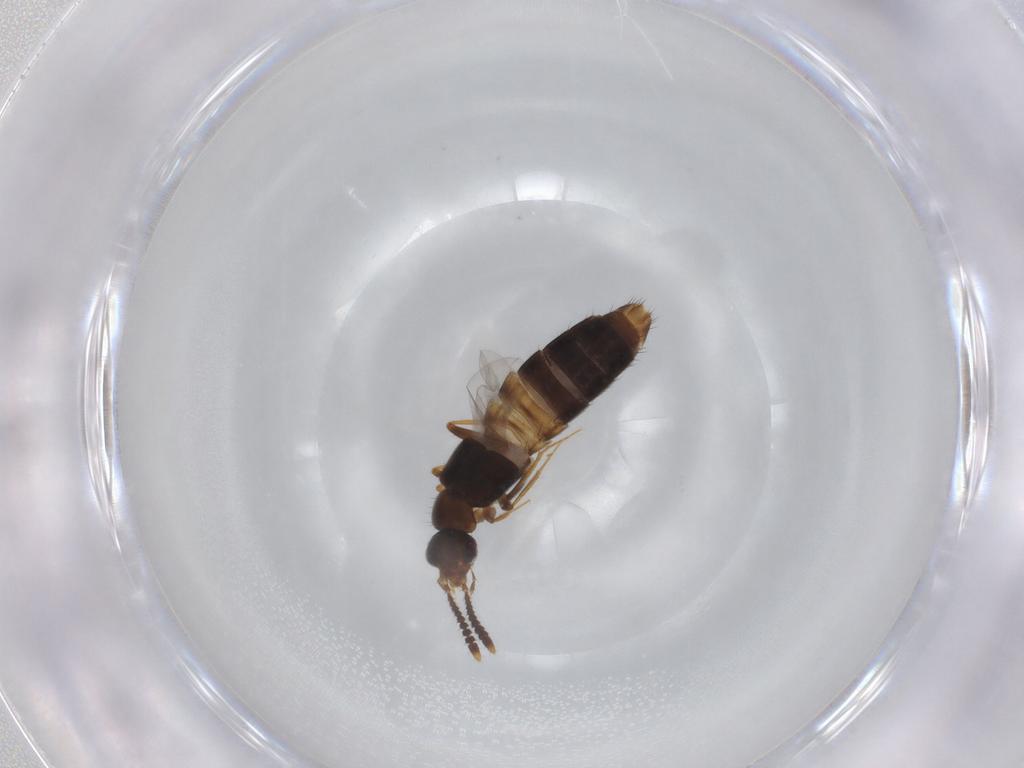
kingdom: Animalia
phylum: Arthropoda
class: Insecta
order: Coleoptera
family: Staphylinidae
